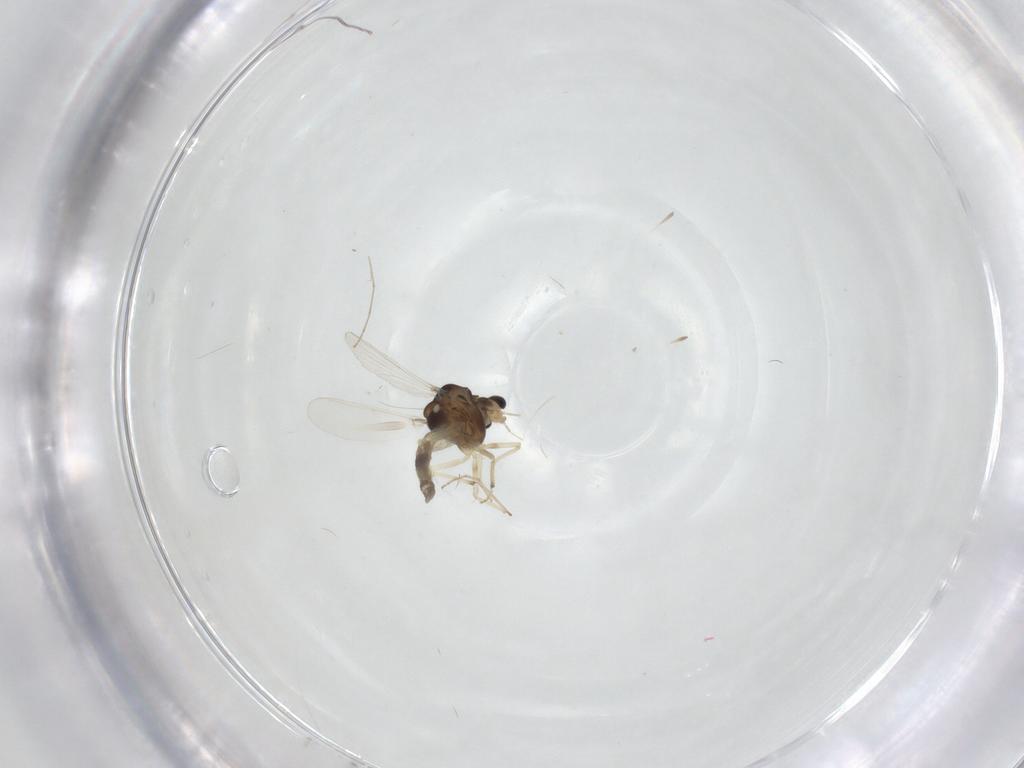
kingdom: Animalia
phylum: Arthropoda
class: Insecta
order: Diptera
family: Cecidomyiidae
